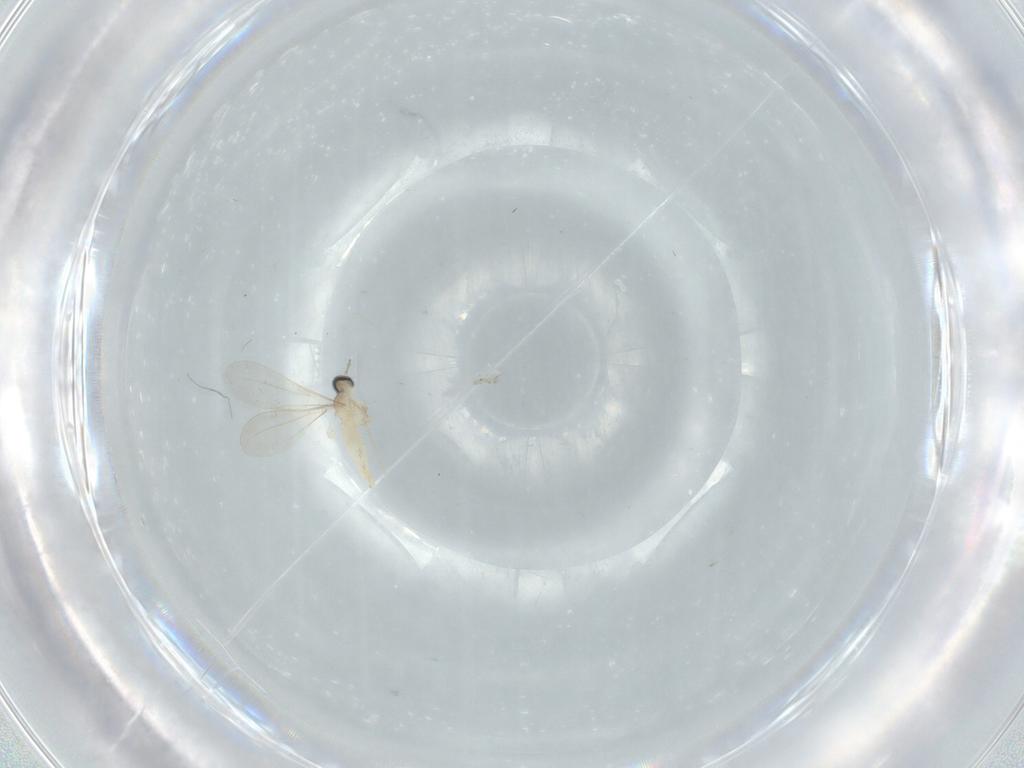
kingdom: Animalia
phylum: Arthropoda
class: Insecta
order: Diptera
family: Cecidomyiidae
